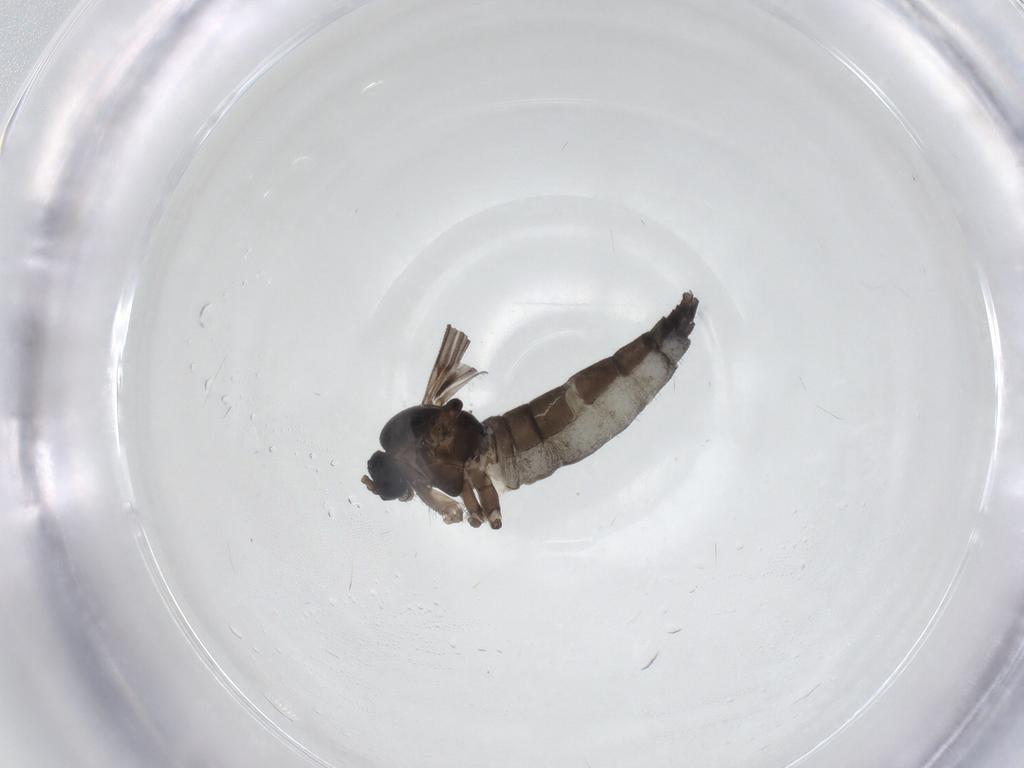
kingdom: Animalia
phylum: Arthropoda
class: Insecta
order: Diptera
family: Sciaridae
